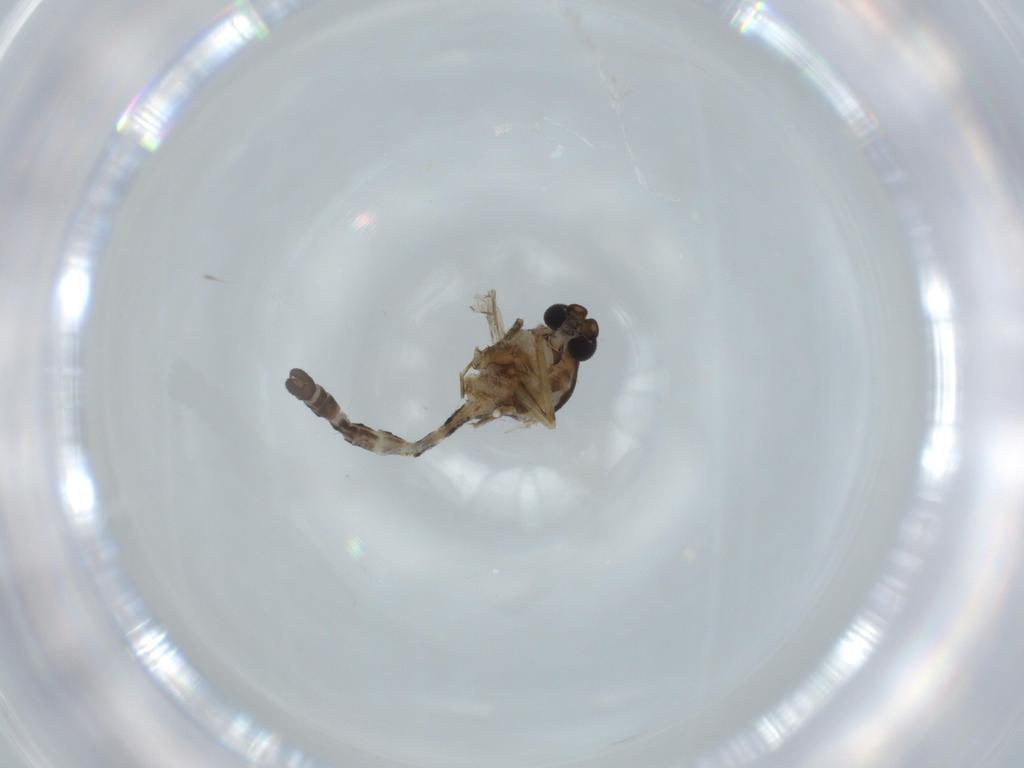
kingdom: Animalia
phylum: Arthropoda
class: Insecta
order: Diptera
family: Ceratopogonidae
